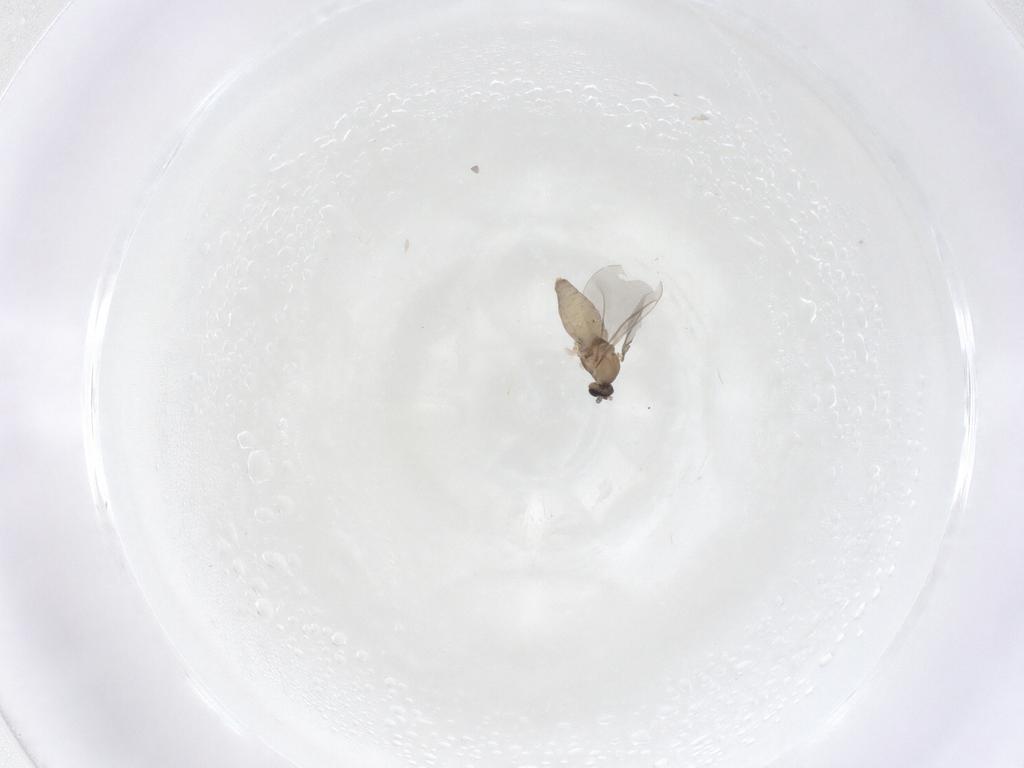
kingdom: Animalia
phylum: Arthropoda
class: Insecta
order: Diptera
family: Cecidomyiidae
